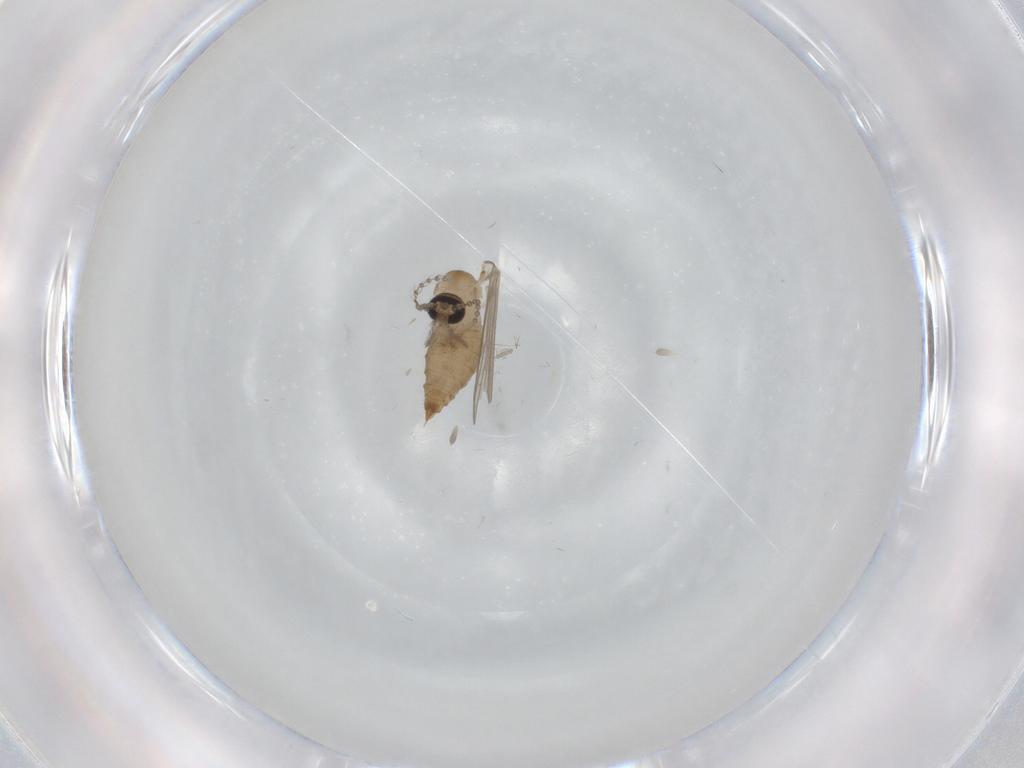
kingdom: Animalia
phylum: Arthropoda
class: Insecta
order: Diptera
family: Psychodidae
